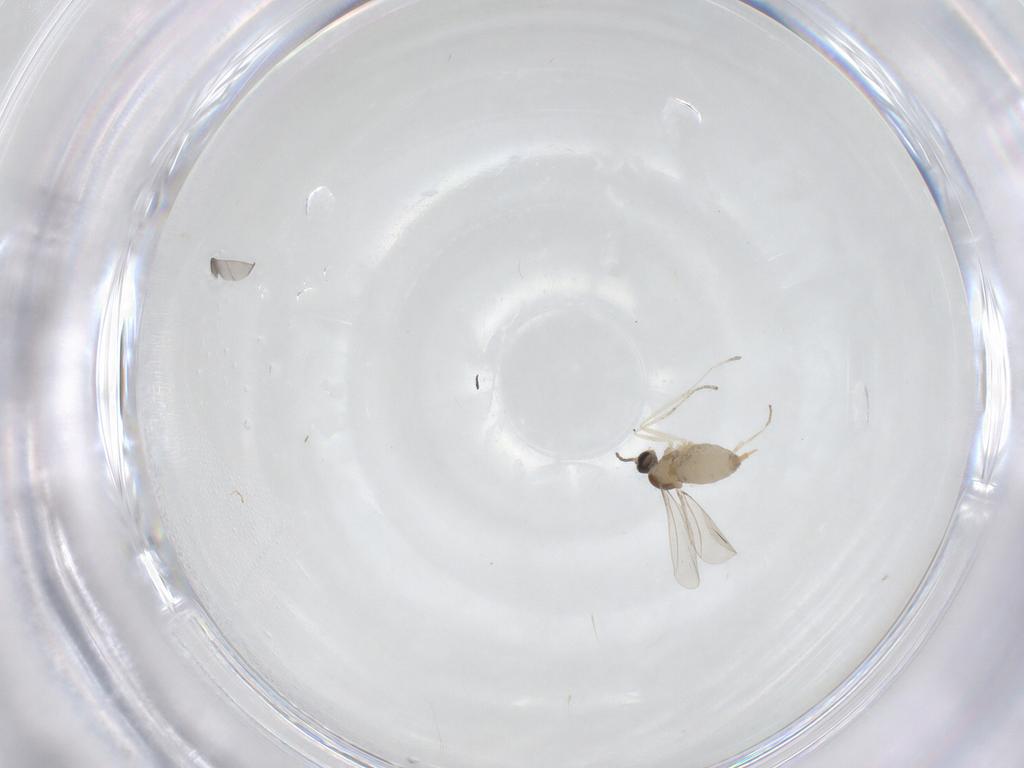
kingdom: Animalia
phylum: Arthropoda
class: Insecta
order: Diptera
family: Cecidomyiidae
